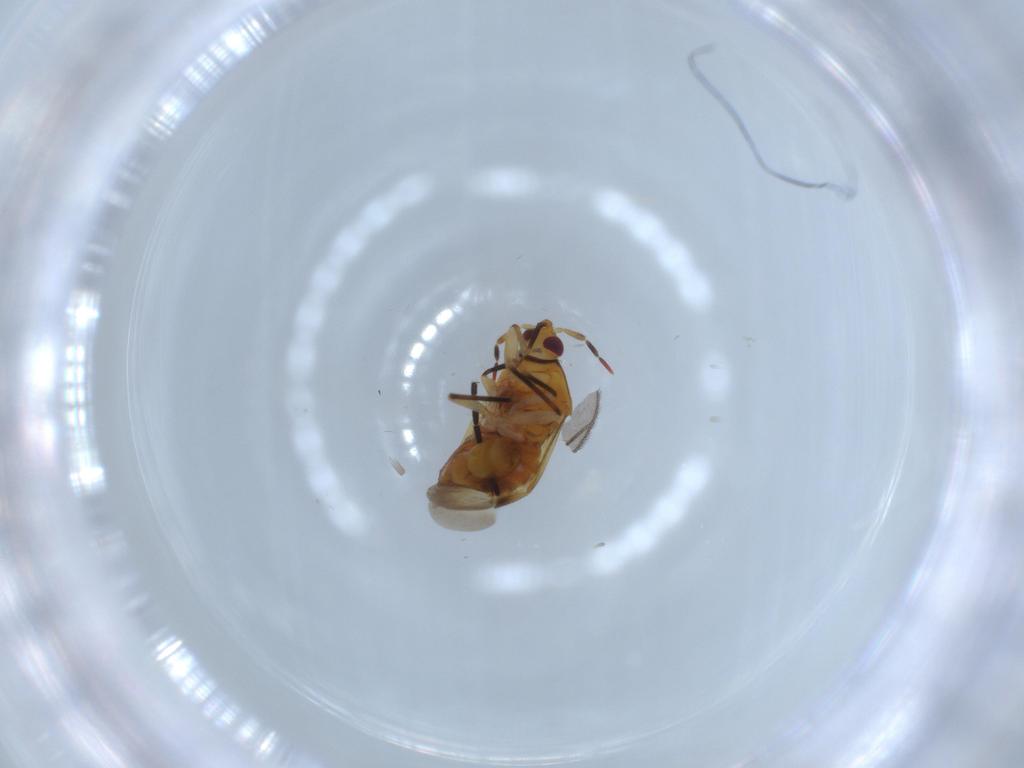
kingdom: Animalia
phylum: Arthropoda
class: Insecta
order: Hemiptera
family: Anthocoridae
